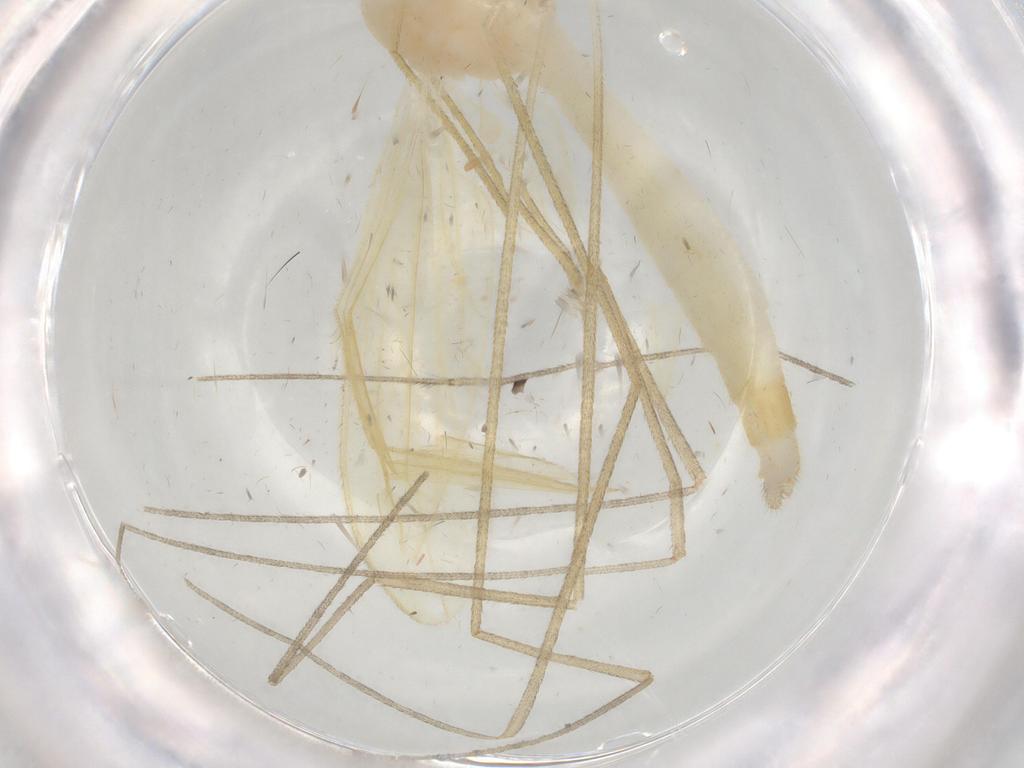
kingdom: Animalia
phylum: Arthropoda
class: Insecta
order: Diptera
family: Limoniidae
